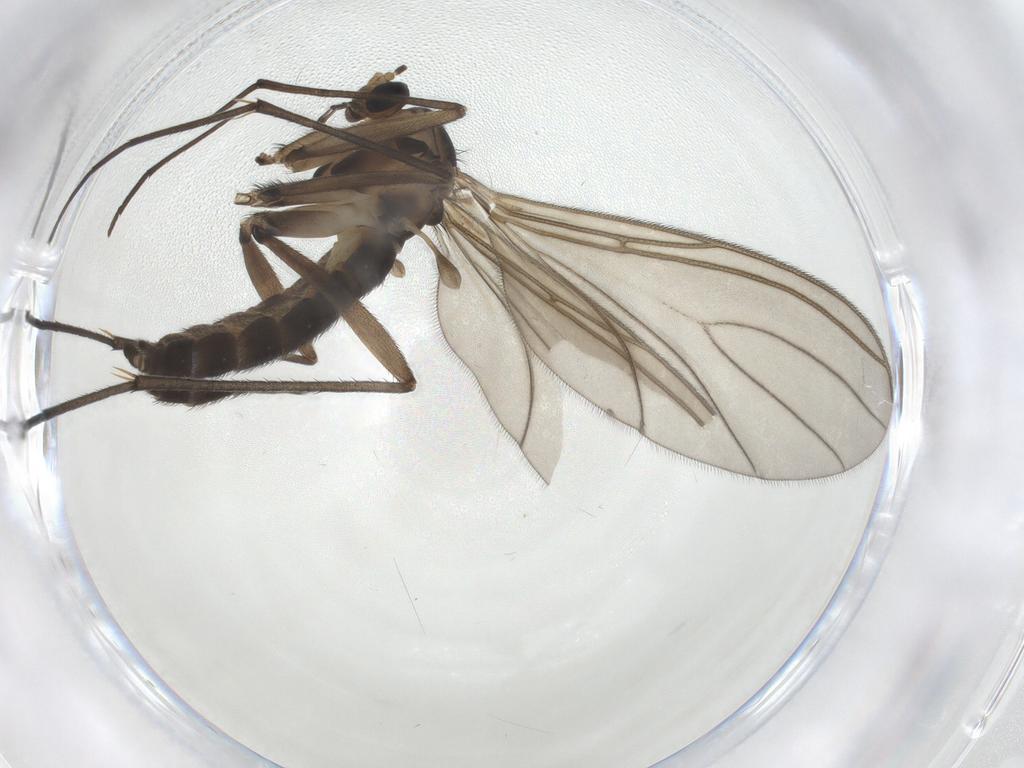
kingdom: Animalia
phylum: Arthropoda
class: Insecta
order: Diptera
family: Sciaridae
